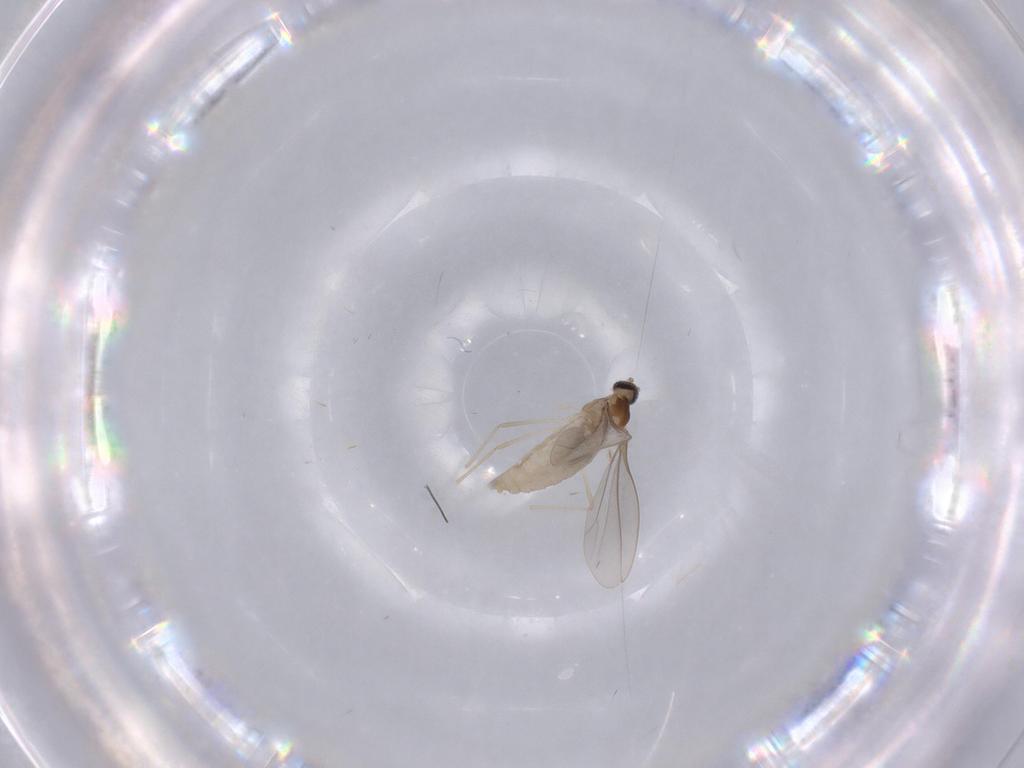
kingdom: Animalia
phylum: Arthropoda
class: Insecta
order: Diptera
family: Cecidomyiidae
